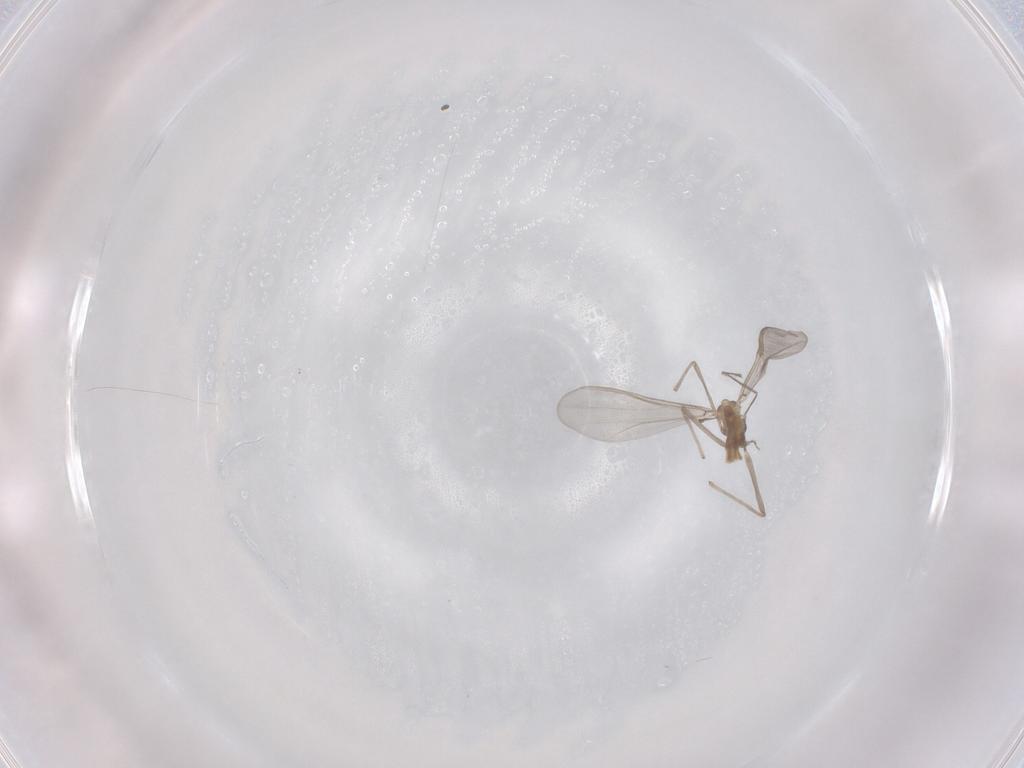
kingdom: Animalia
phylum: Arthropoda
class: Insecta
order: Diptera
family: Chironomidae
